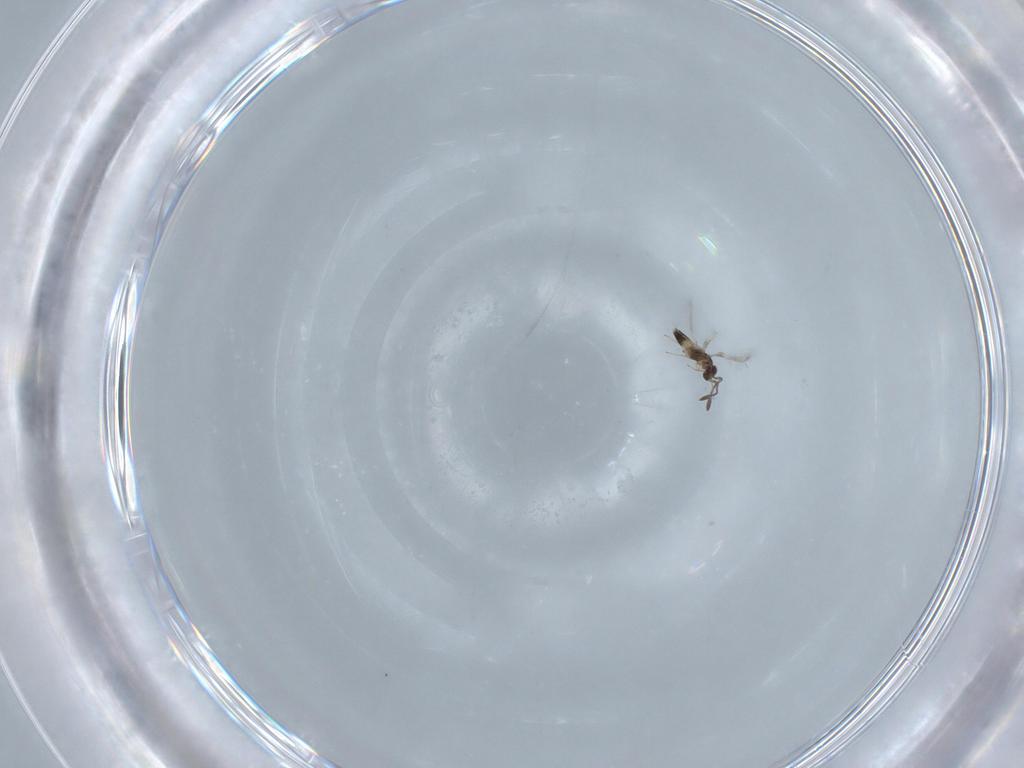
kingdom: Animalia
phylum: Arthropoda
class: Insecta
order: Hymenoptera
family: Mymaridae
